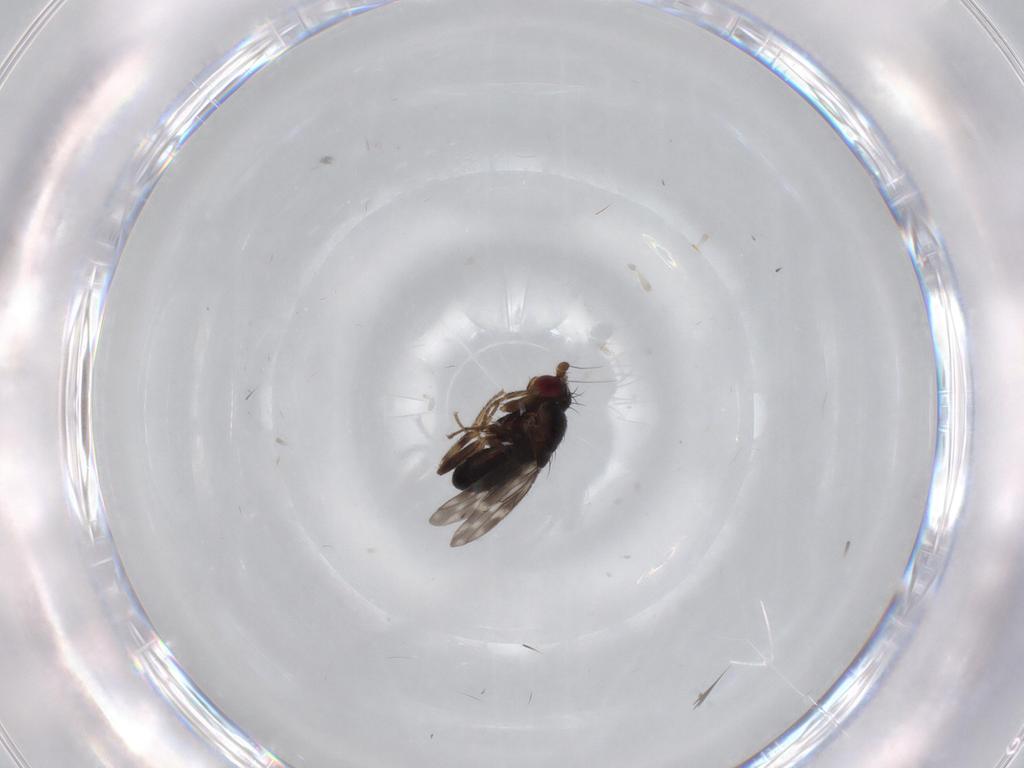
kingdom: Animalia
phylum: Arthropoda
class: Insecta
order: Diptera
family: Sphaeroceridae
